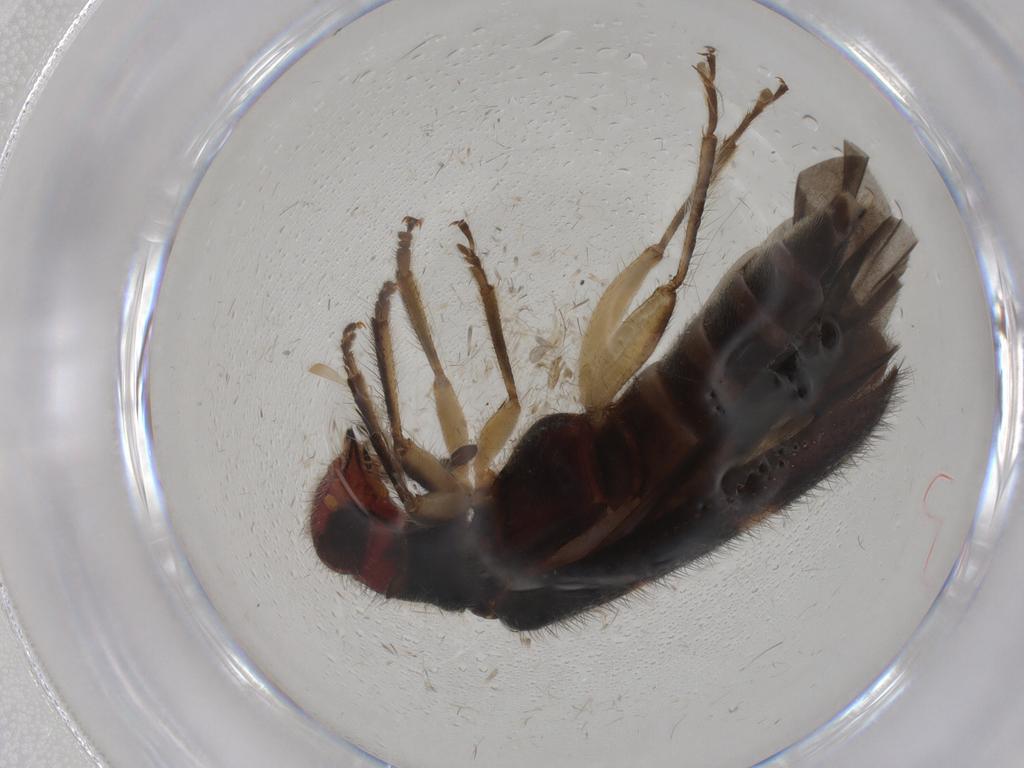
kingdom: Animalia
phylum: Arthropoda
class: Insecta
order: Coleoptera
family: Cleridae
